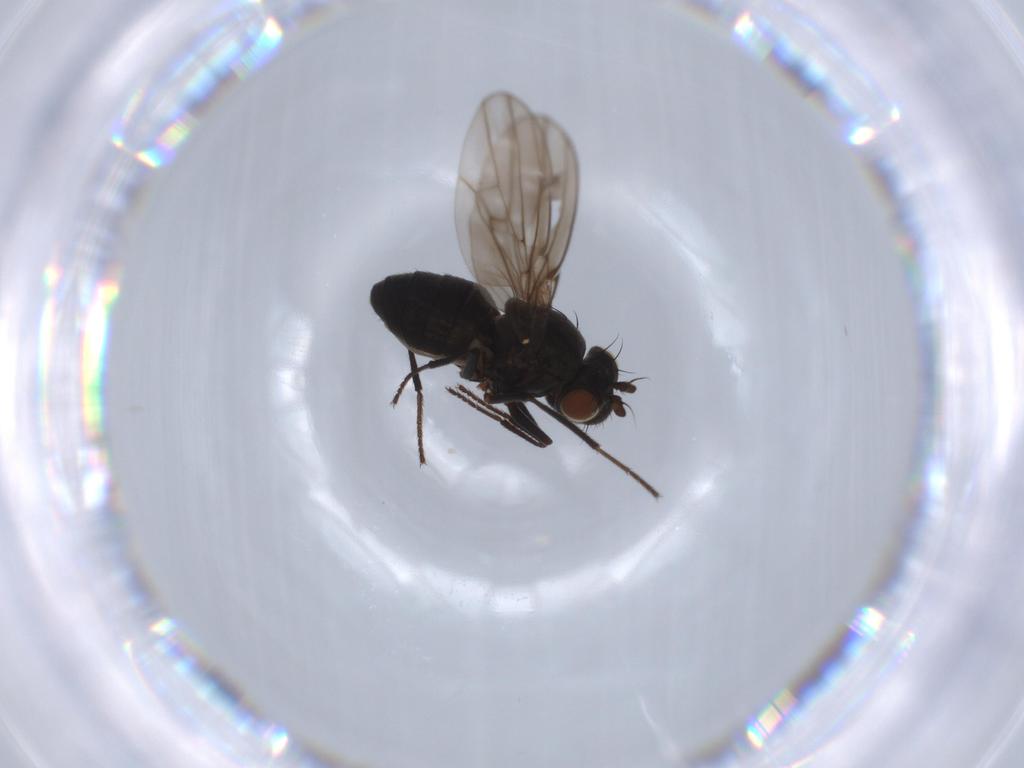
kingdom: Animalia
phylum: Arthropoda
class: Insecta
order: Diptera
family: Ephydridae
